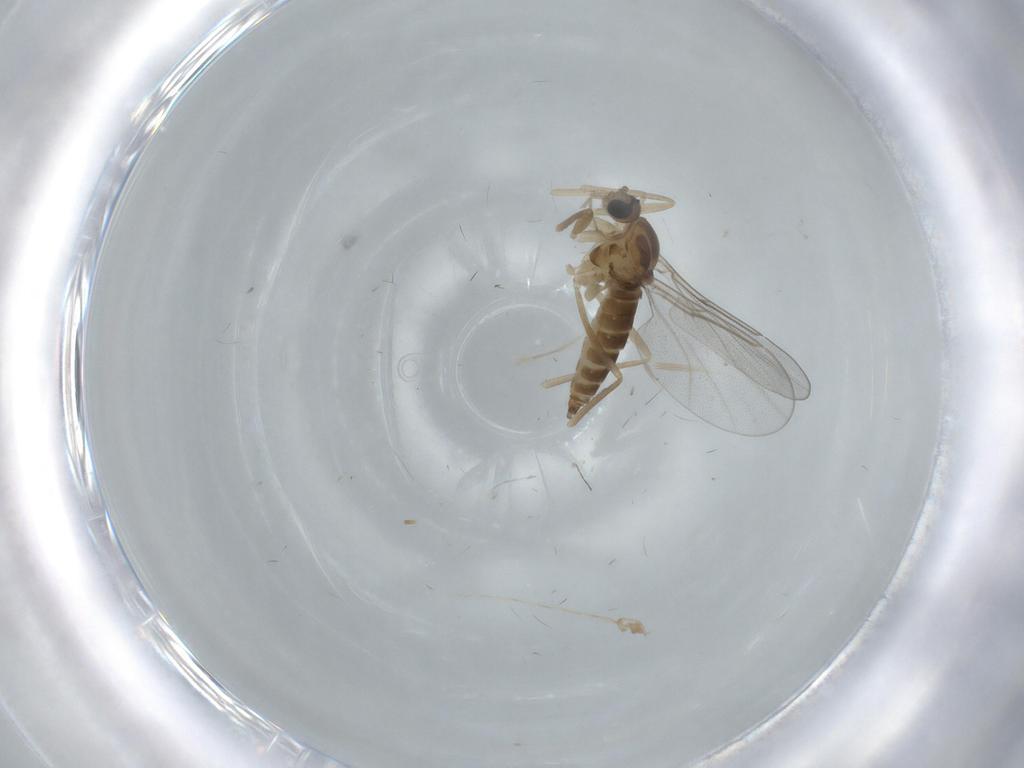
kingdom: Animalia
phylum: Arthropoda
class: Insecta
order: Diptera
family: Cecidomyiidae
